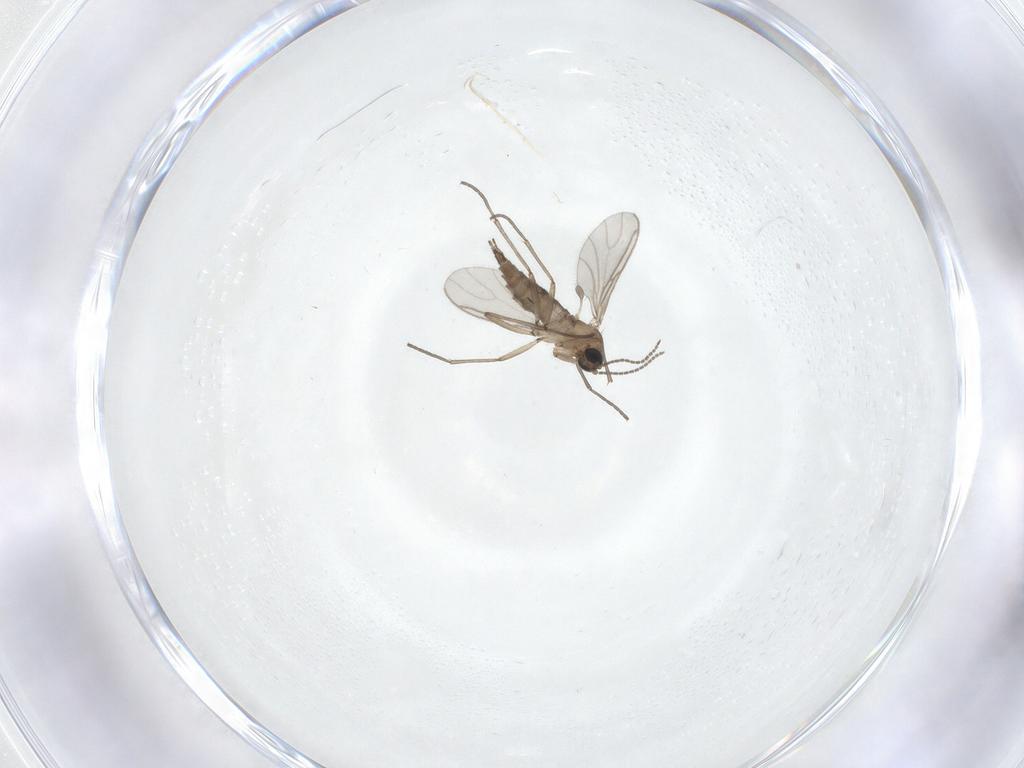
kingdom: Animalia
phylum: Arthropoda
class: Insecta
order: Diptera
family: Sciaridae
